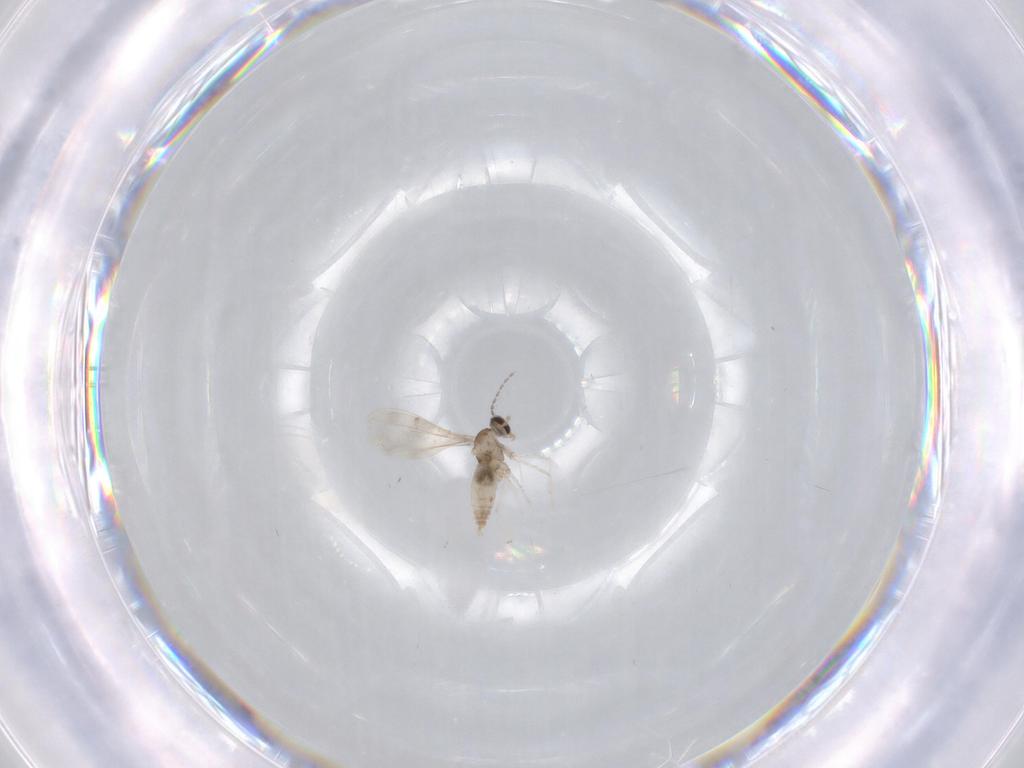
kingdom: Animalia
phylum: Arthropoda
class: Insecta
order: Diptera
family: Cecidomyiidae
